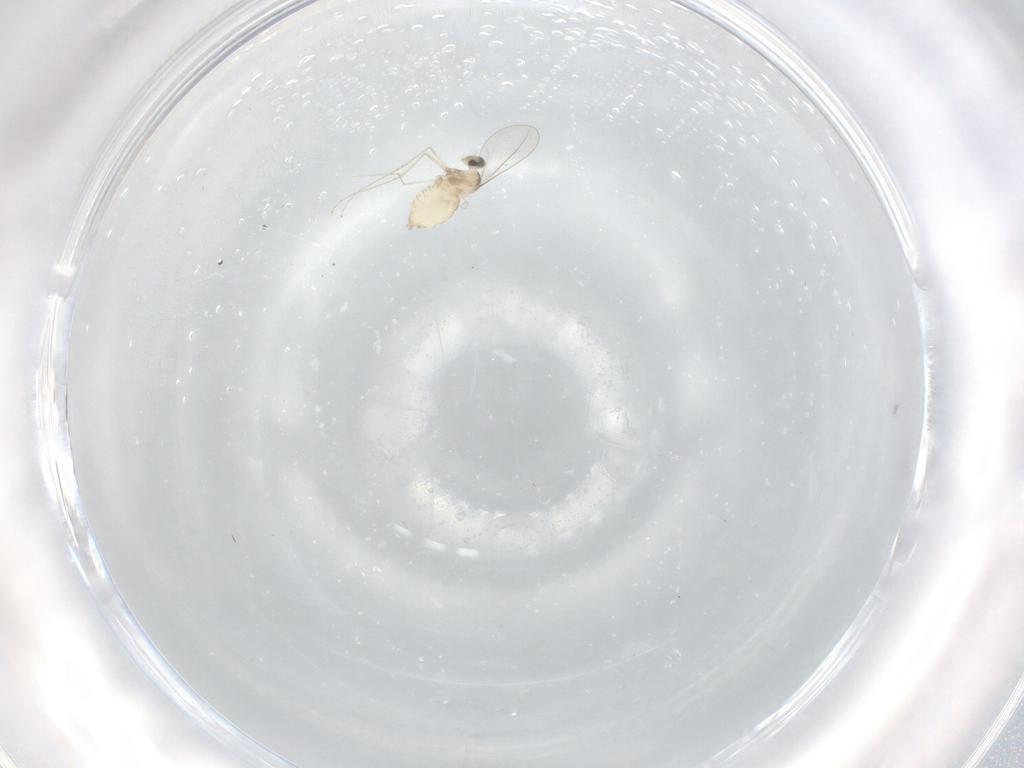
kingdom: Animalia
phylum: Arthropoda
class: Insecta
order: Diptera
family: Cecidomyiidae
